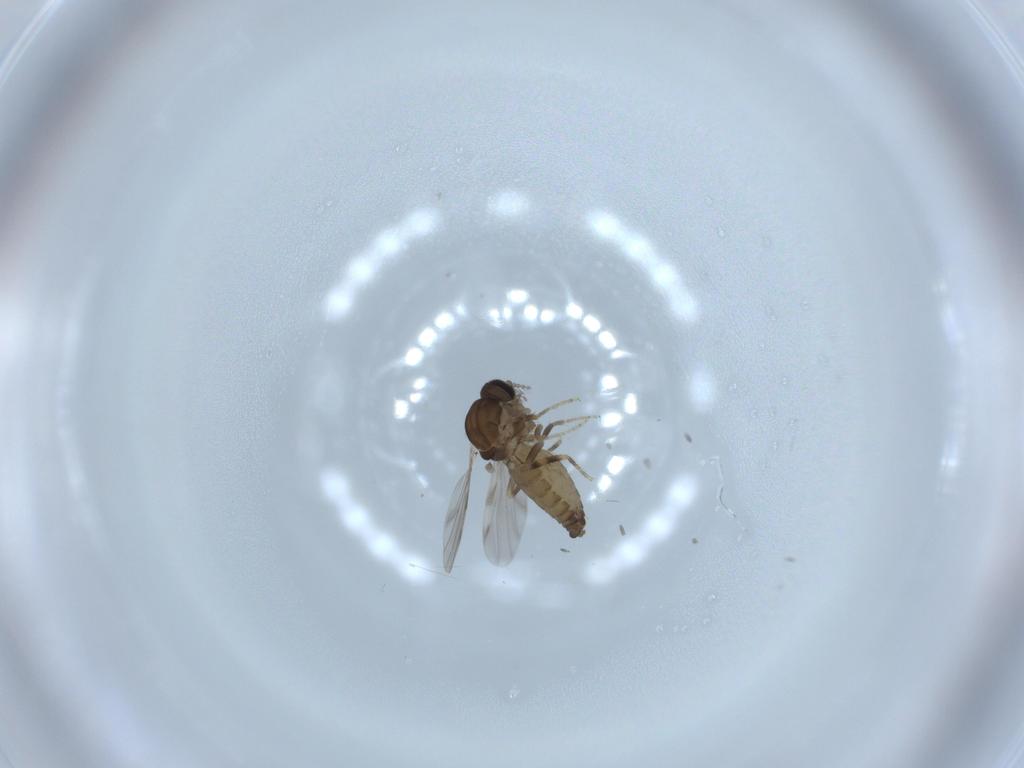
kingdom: Animalia
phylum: Arthropoda
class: Insecta
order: Diptera
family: Ceratopogonidae
